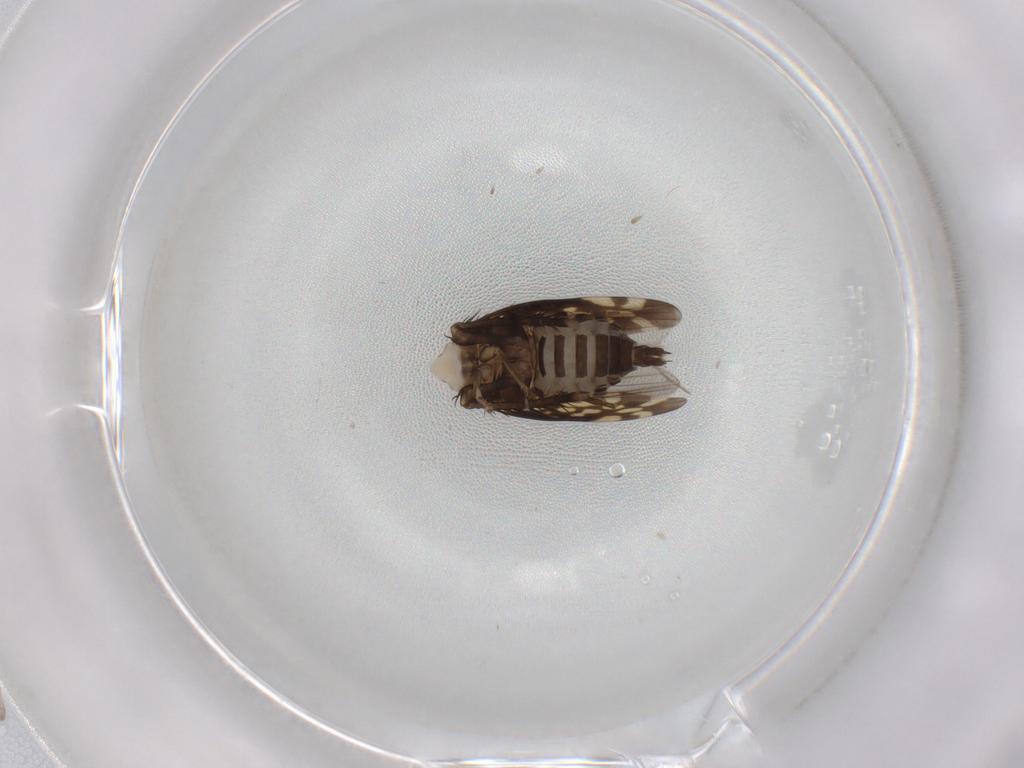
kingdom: Animalia
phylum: Arthropoda
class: Insecta
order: Hemiptera
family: Cicadellidae
